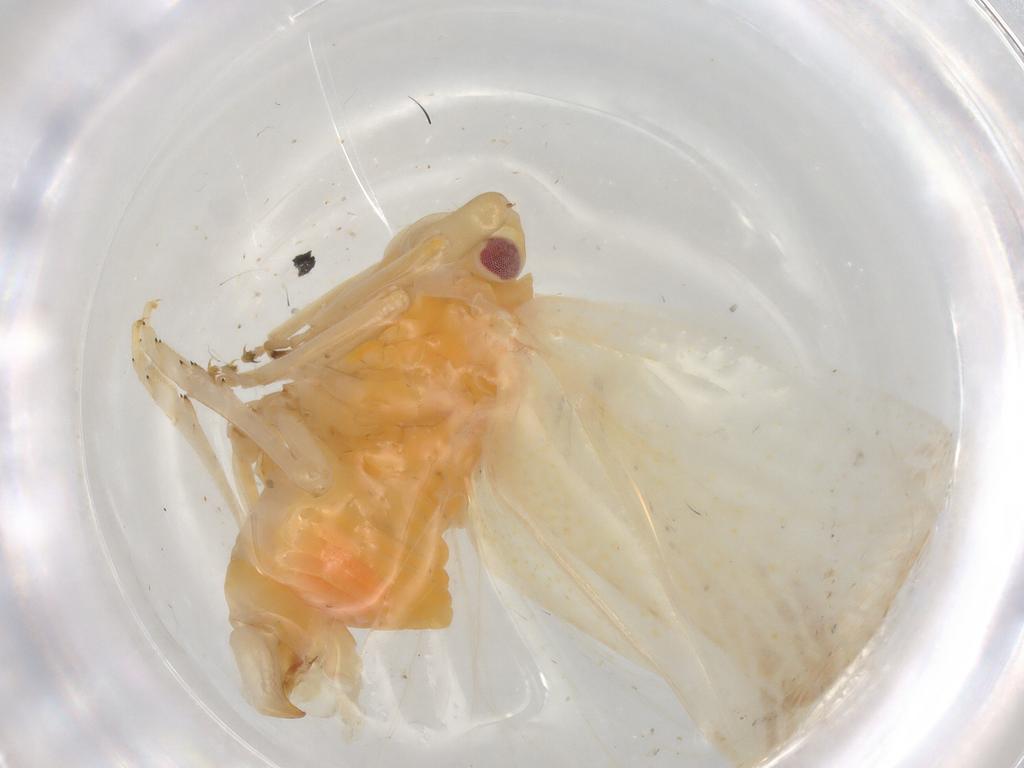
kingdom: Animalia
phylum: Arthropoda
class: Insecta
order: Hemiptera
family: Flatidae
